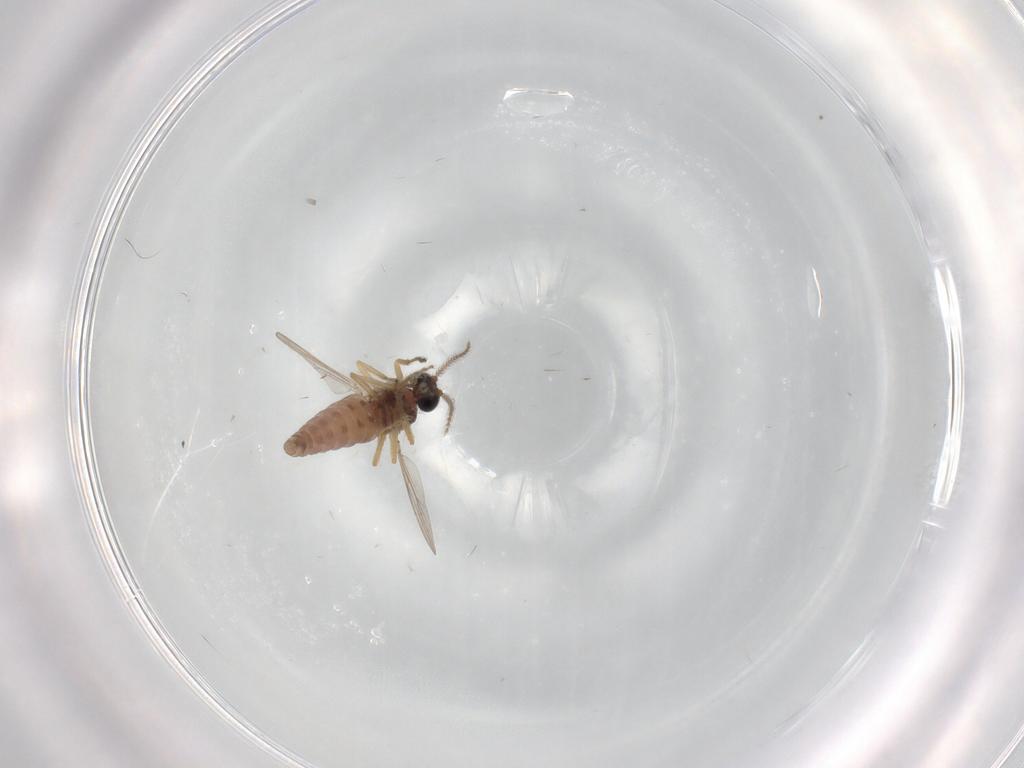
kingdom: Animalia
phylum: Arthropoda
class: Insecta
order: Diptera
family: Ceratopogonidae
